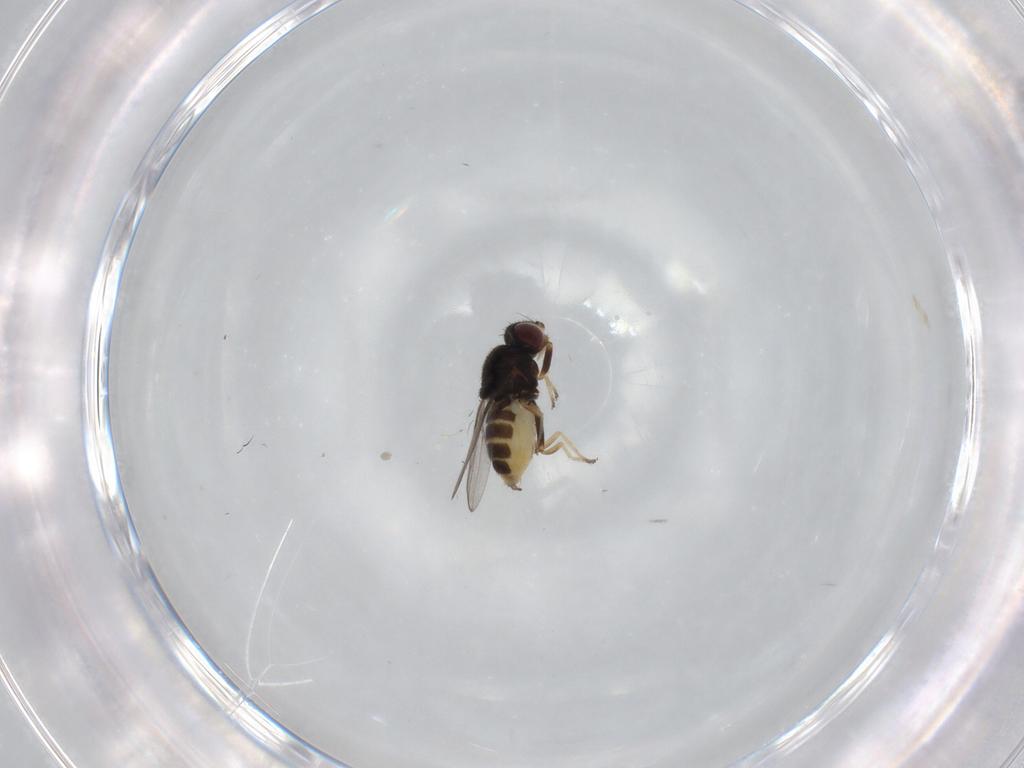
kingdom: Animalia
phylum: Arthropoda
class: Insecta
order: Diptera
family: Chloropidae
